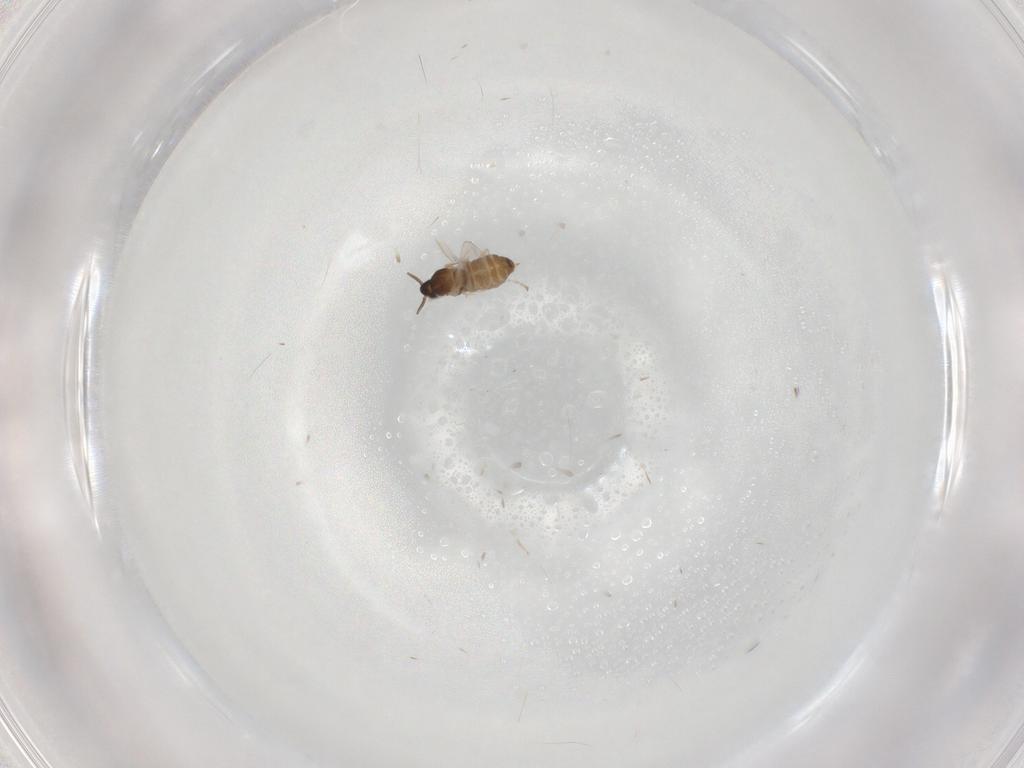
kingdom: Animalia
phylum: Arthropoda
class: Insecta
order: Diptera
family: Cecidomyiidae
